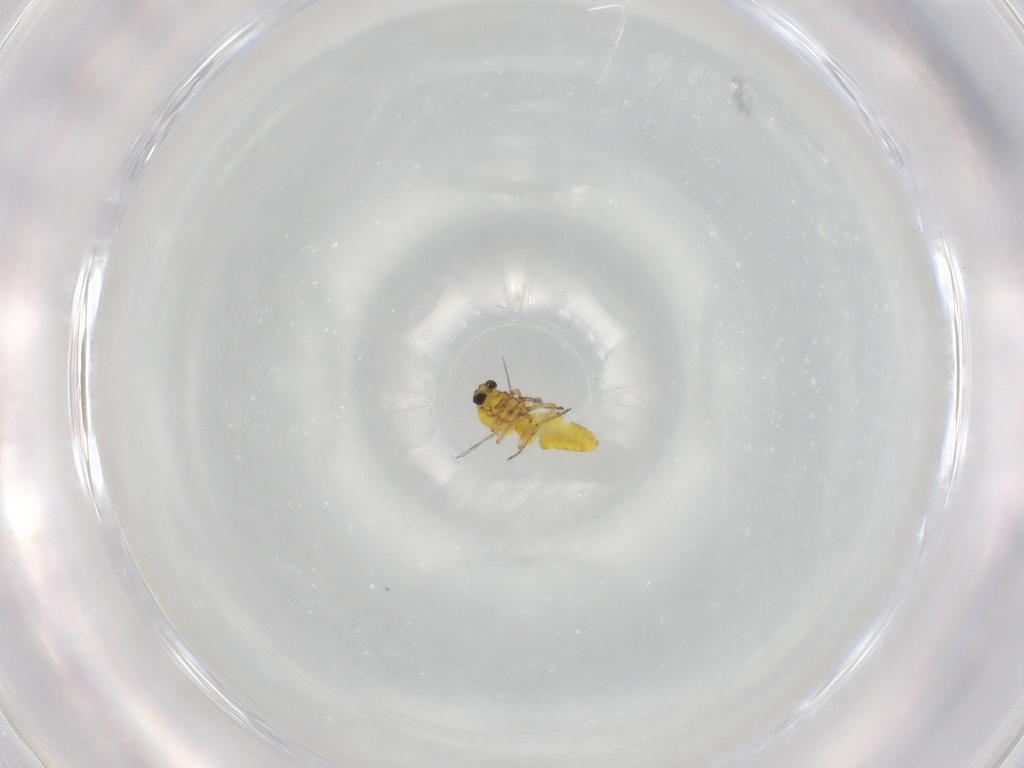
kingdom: Animalia
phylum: Arthropoda
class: Insecta
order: Diptera
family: Ceratopogonidae
